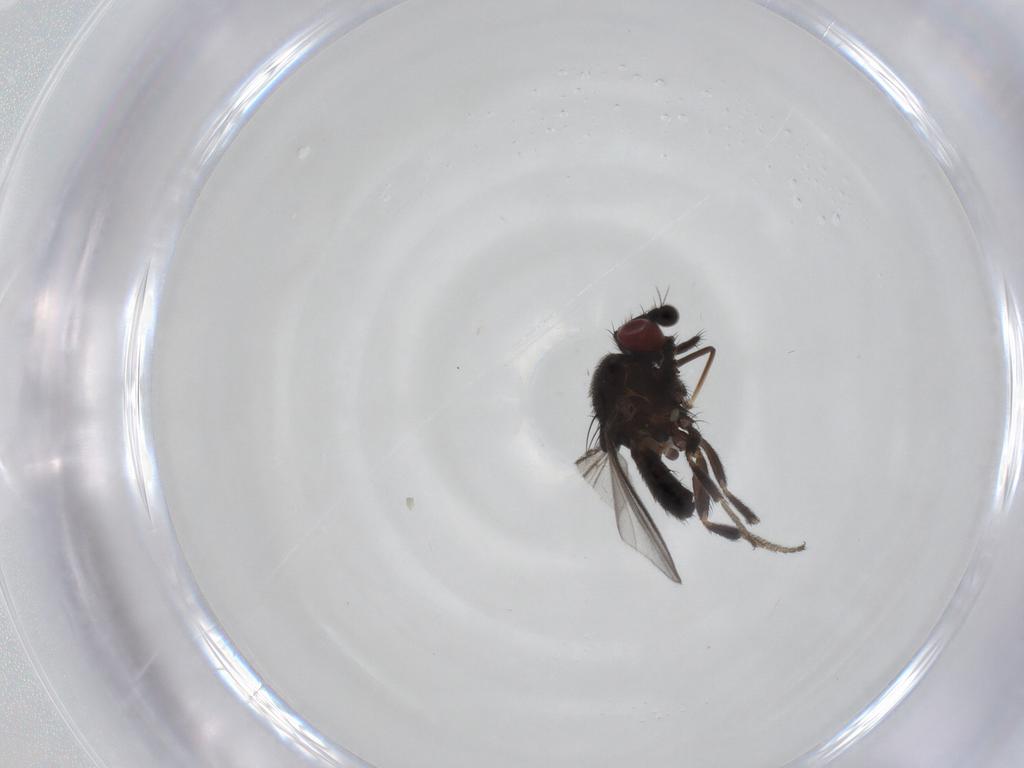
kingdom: Animalia
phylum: Arthropoda
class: Insecta
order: Diptera
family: Milichiidae
